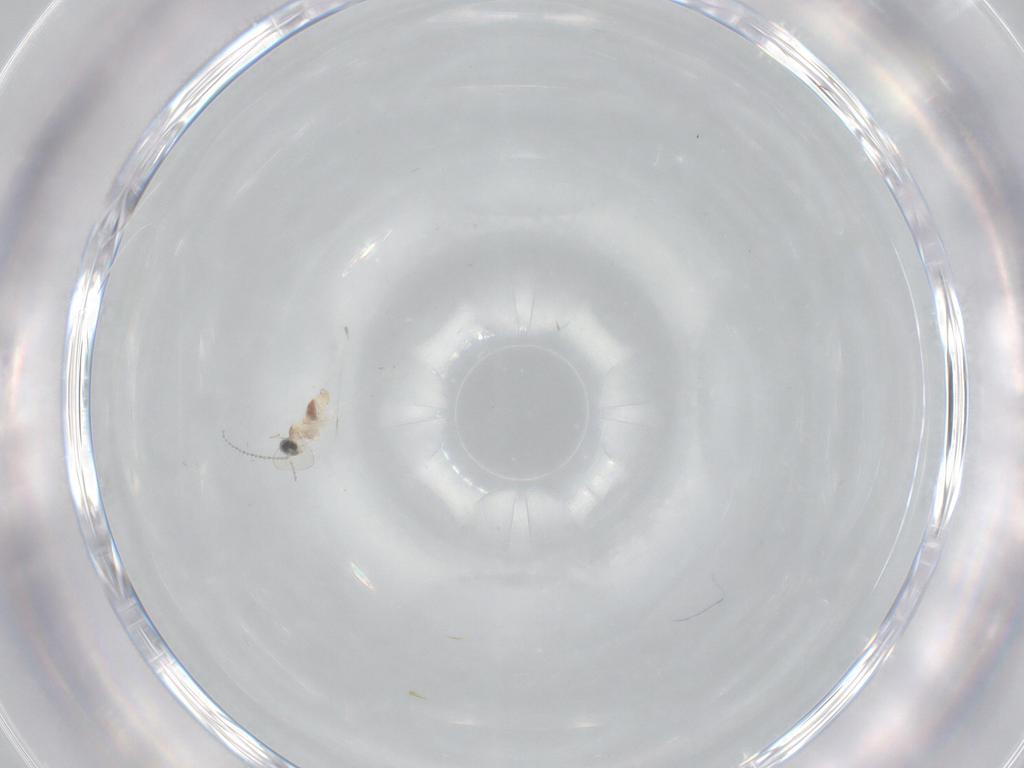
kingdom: Animalia
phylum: Arthropoda
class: Insecta
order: Diptera
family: Cecidomyiidae
